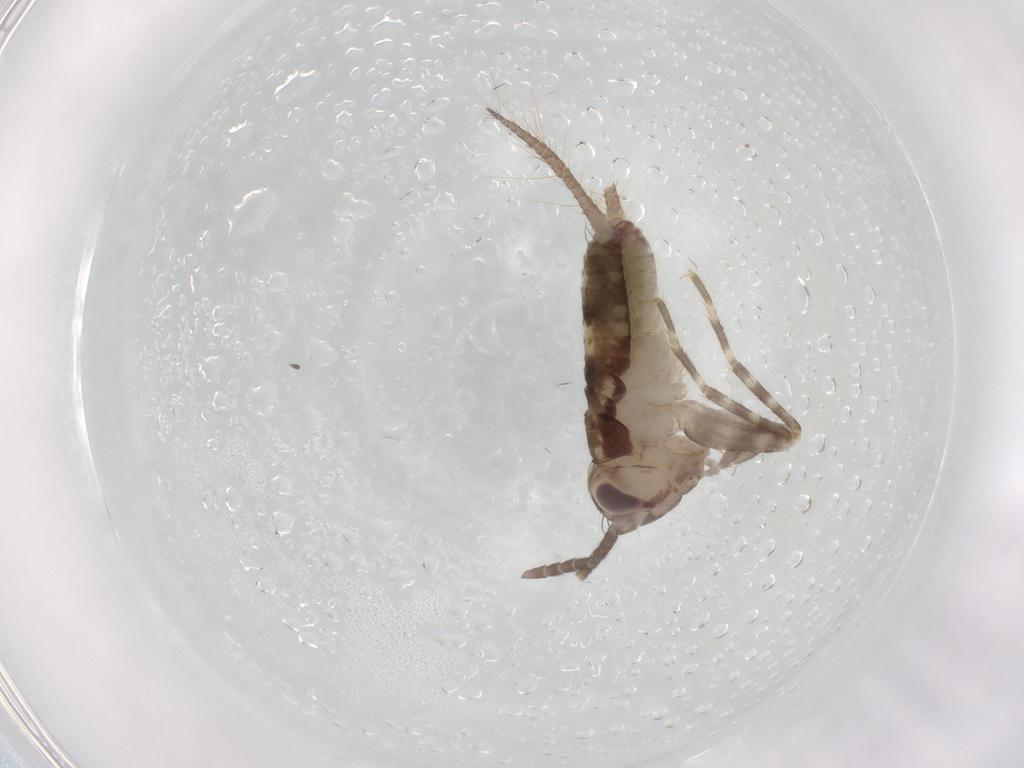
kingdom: Animalia
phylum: Arthropoda
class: Insecta
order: Orthoptera
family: Gryllidae
